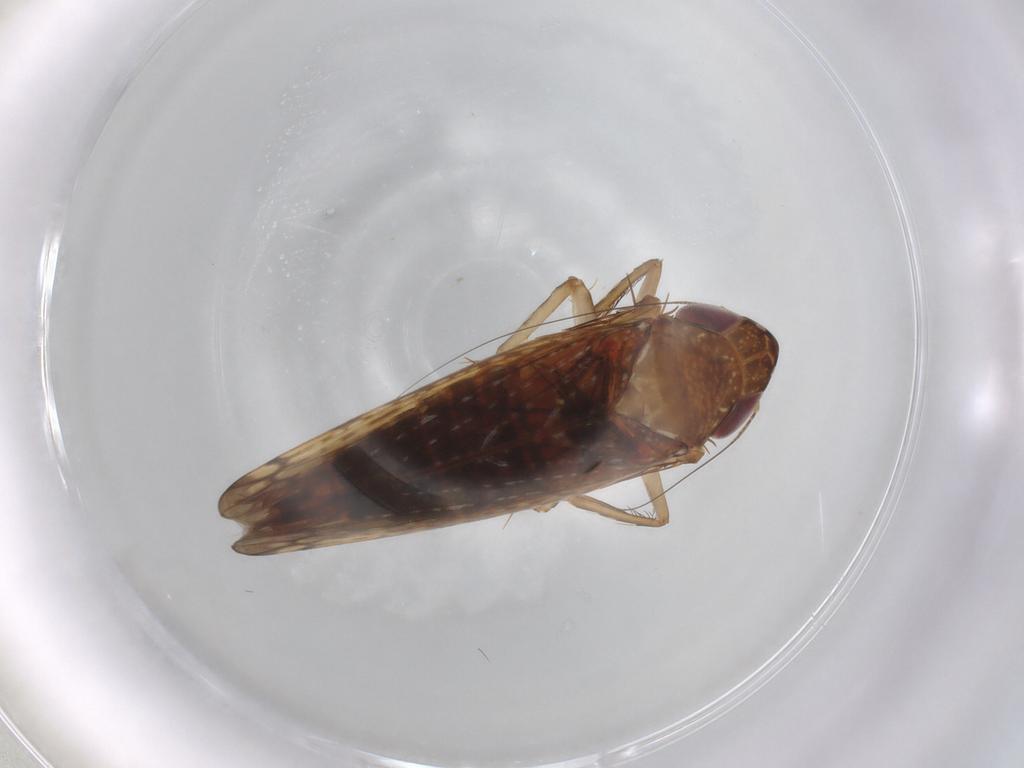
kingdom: Animalia
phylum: Arthropoda
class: Insecta
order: Hemiptera
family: Cicadellidae
